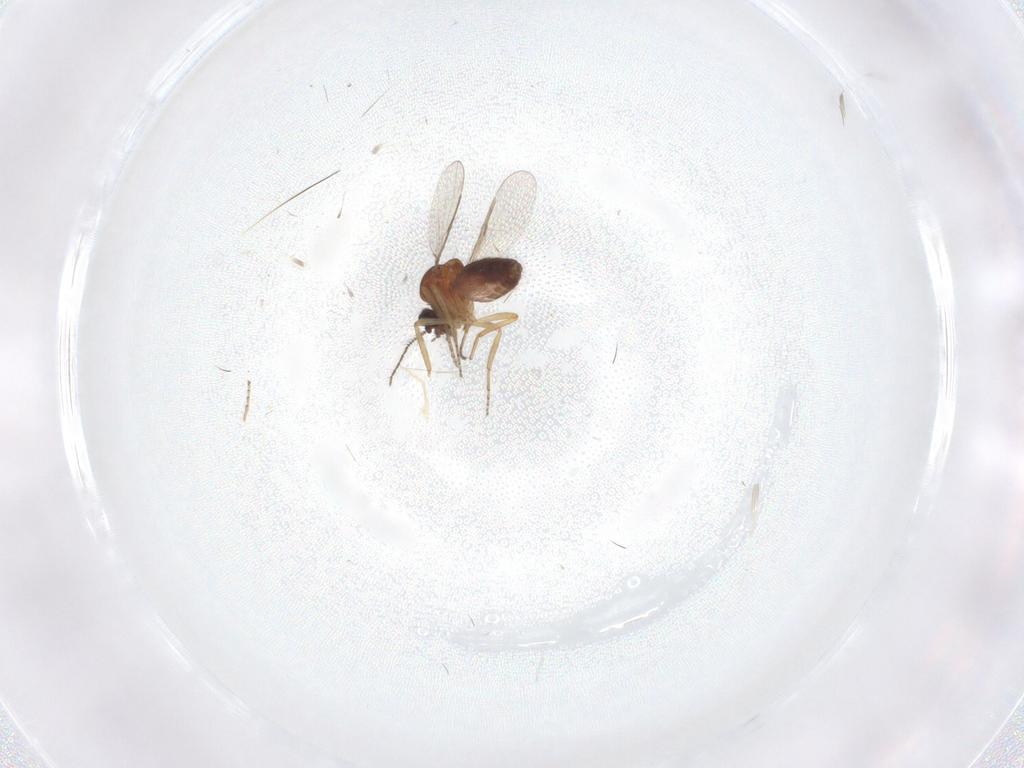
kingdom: Animalia
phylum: Arthropoda
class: Insecta
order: Diptera
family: Ceratopogonidae
